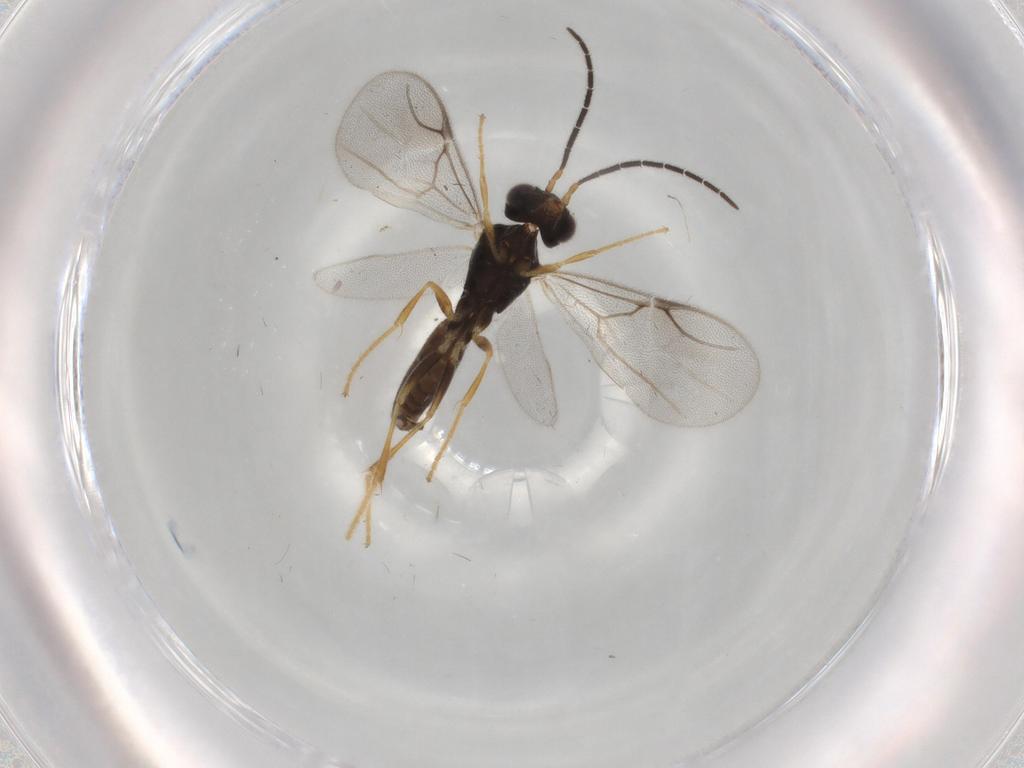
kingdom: Animalia
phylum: Arthropoda
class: Insecta
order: Hymenoptera
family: Dryinidae
